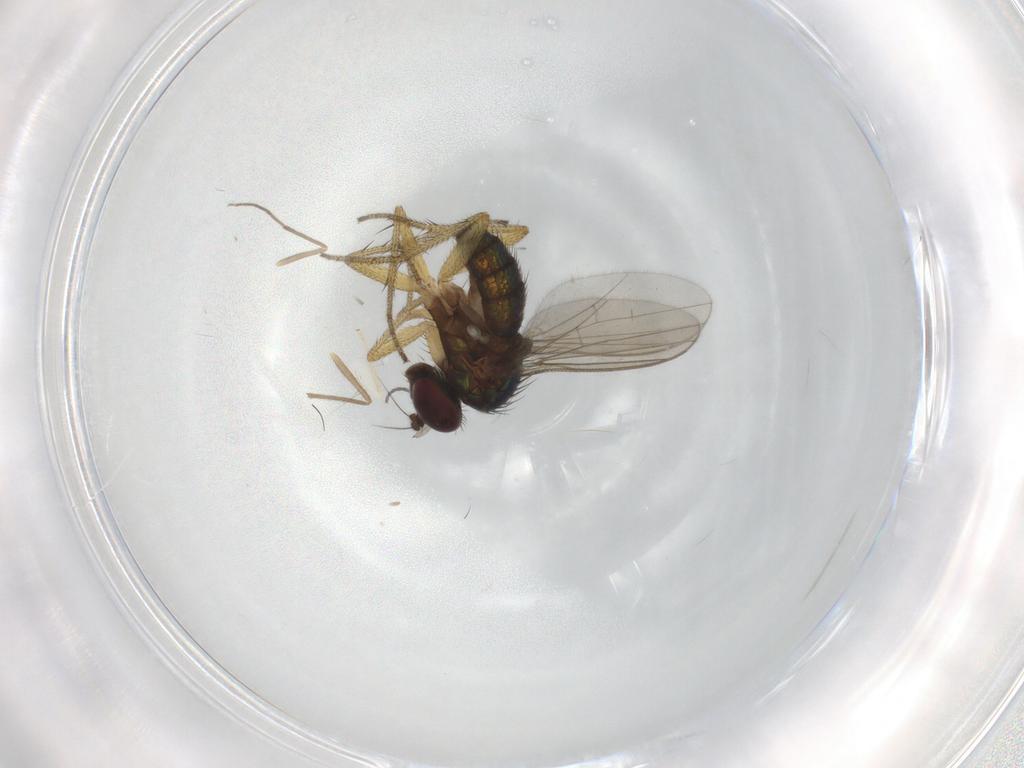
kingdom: Animalia
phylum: Arthropoda
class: Insecta
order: Diptera
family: Sciaridae
